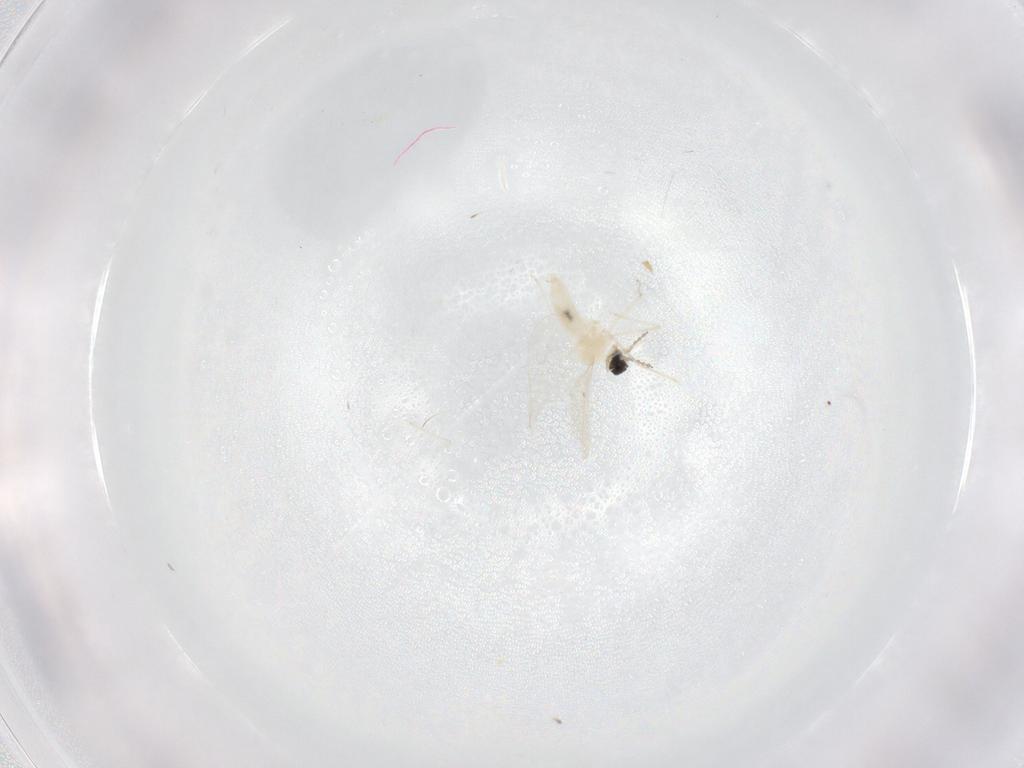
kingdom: Animalia
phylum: Arthropoda
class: Insecta
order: Diptera
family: Cecidomyiidae
